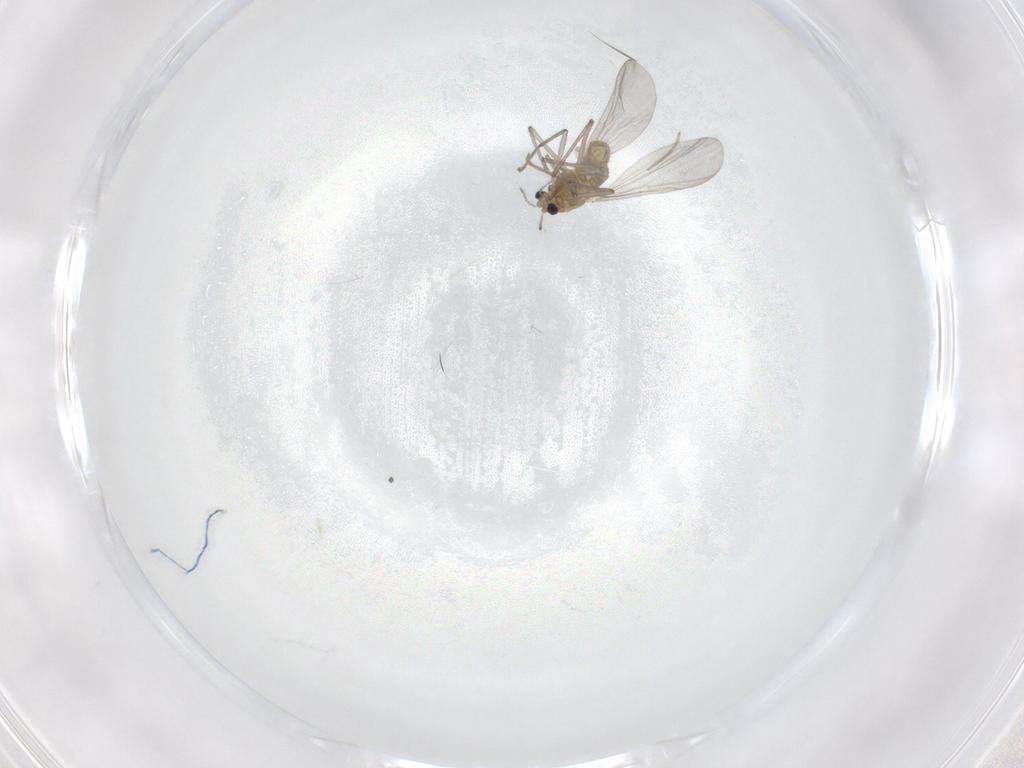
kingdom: Animalia
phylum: Arthropoda
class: Insecta
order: Diptera
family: Chironomidae
